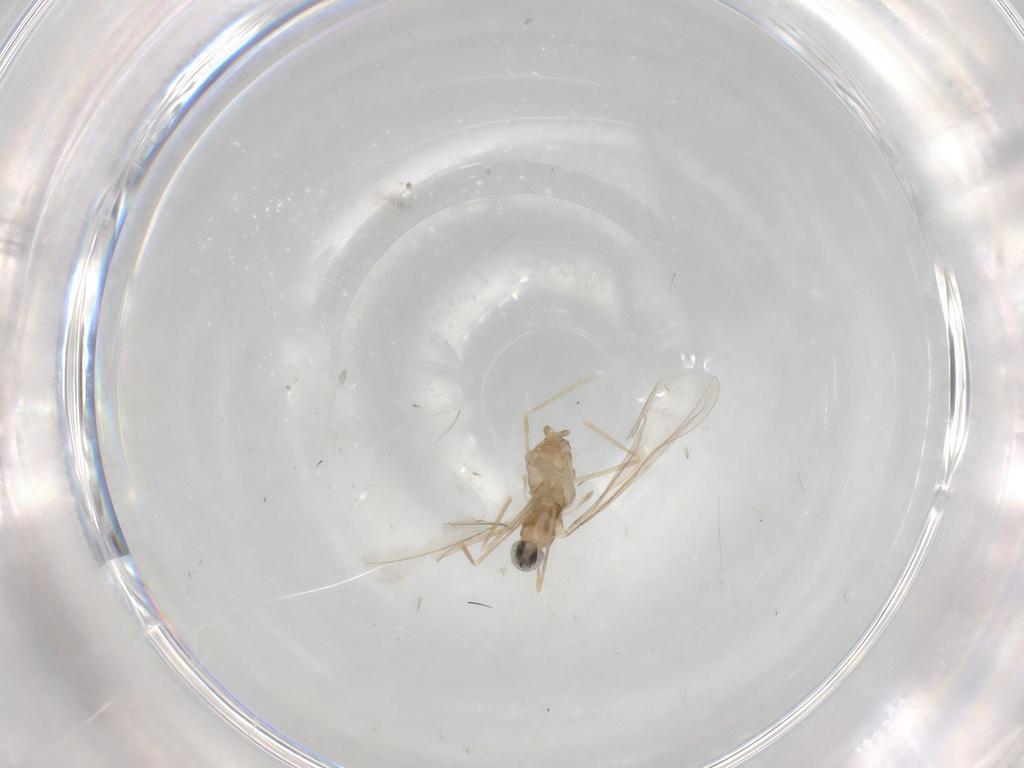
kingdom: Animalia
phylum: Arthropoda
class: Insecta
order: Diptera
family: Cecidomyiidae
